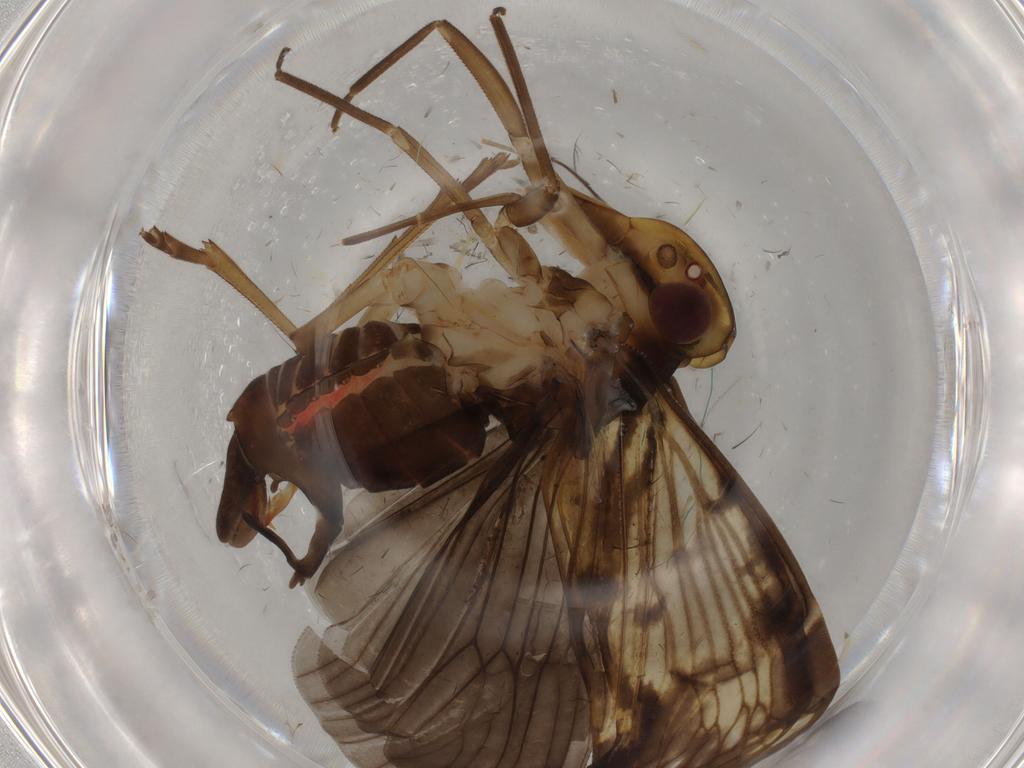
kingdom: Animalia
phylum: Arthropoda
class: Insecta
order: Hemiptera
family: Cixiidae
